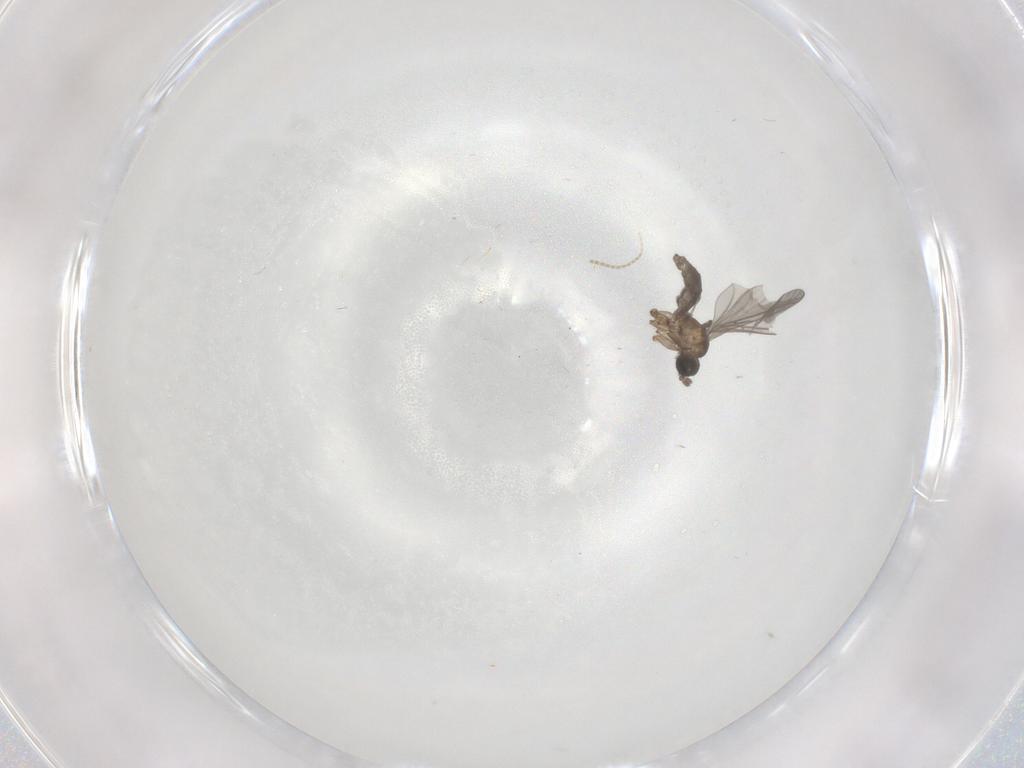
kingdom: Animalia
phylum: Arthropoda
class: Insecta
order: Diptera
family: Sciaridae
